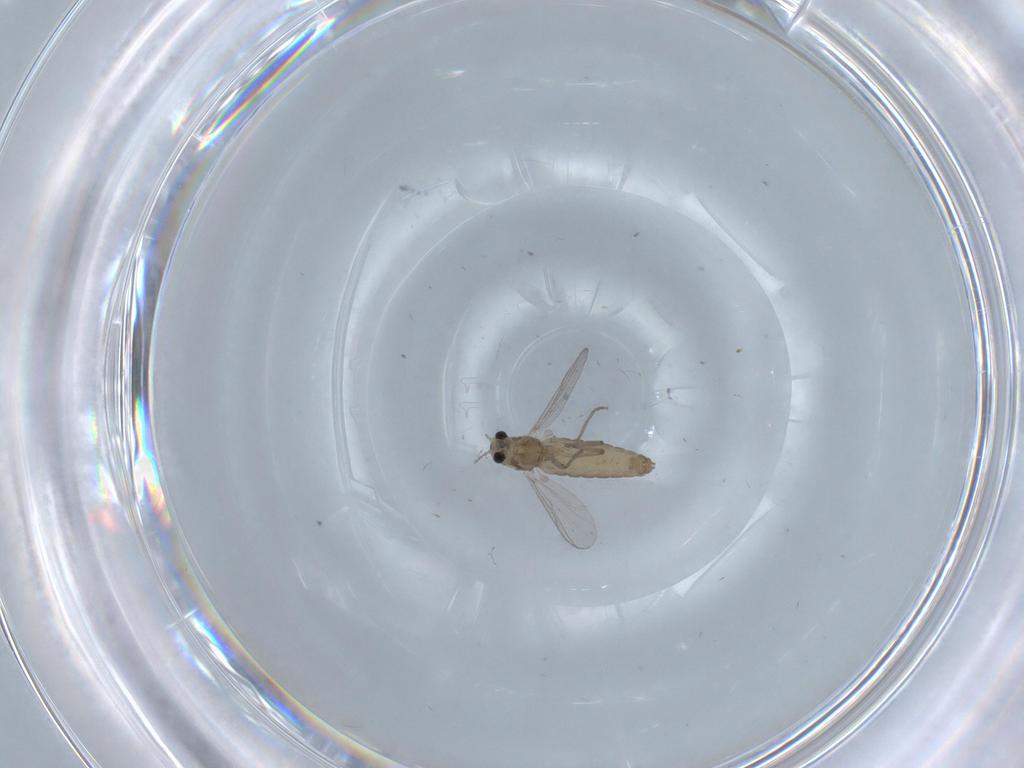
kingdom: Animalia
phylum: Arthropoda
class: Insecta
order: Diptera
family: Chironomidae
